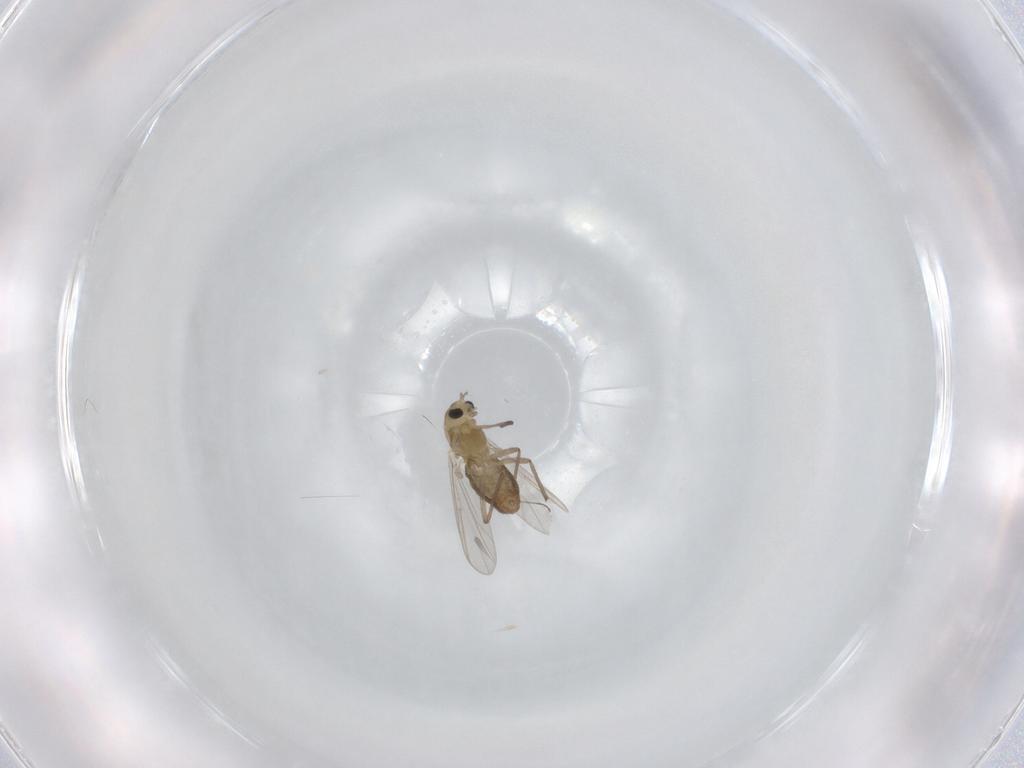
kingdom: Animalia
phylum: Arthropoda
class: Insecta
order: Diptera
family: Chironomidae
